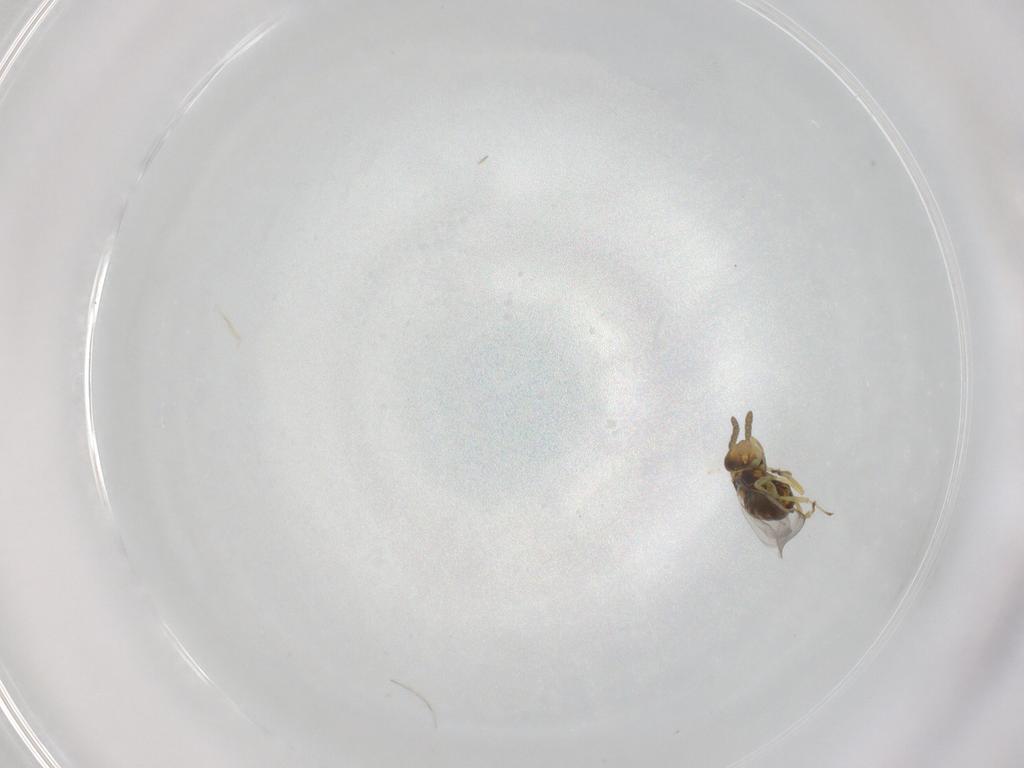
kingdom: Animalia
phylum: Arthropoda
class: Insecta
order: Hymenoptera
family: Aphelinidae
